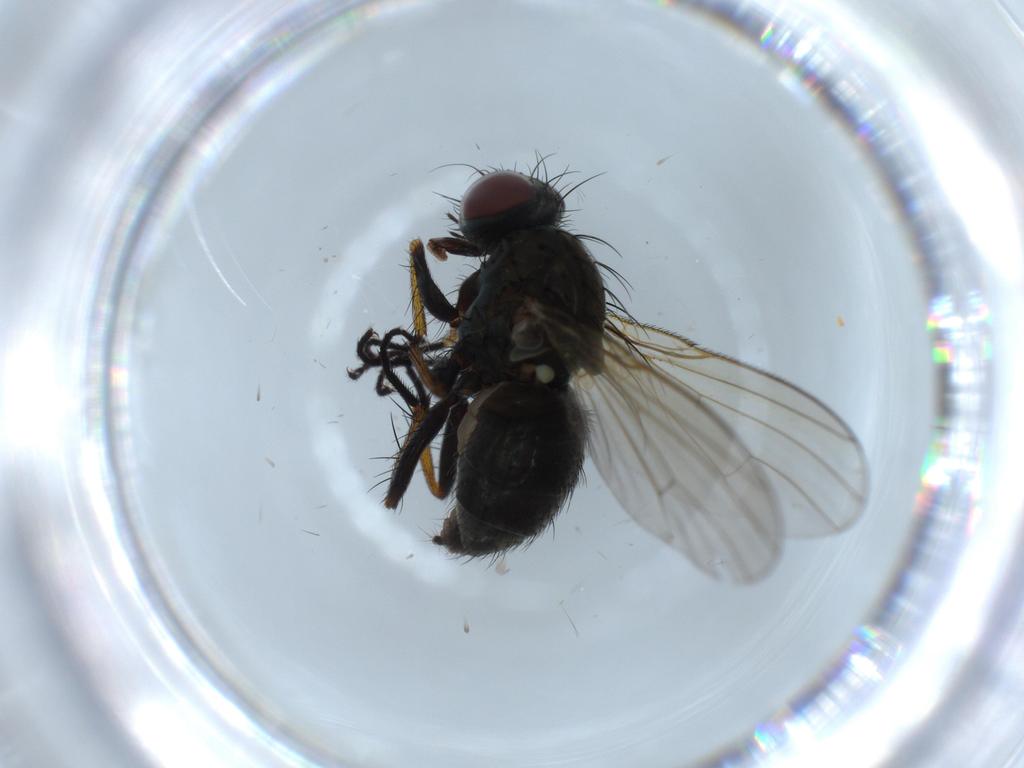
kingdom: Animalia
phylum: Arthropoda
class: Insecta
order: Diptera
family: Sciaridae
